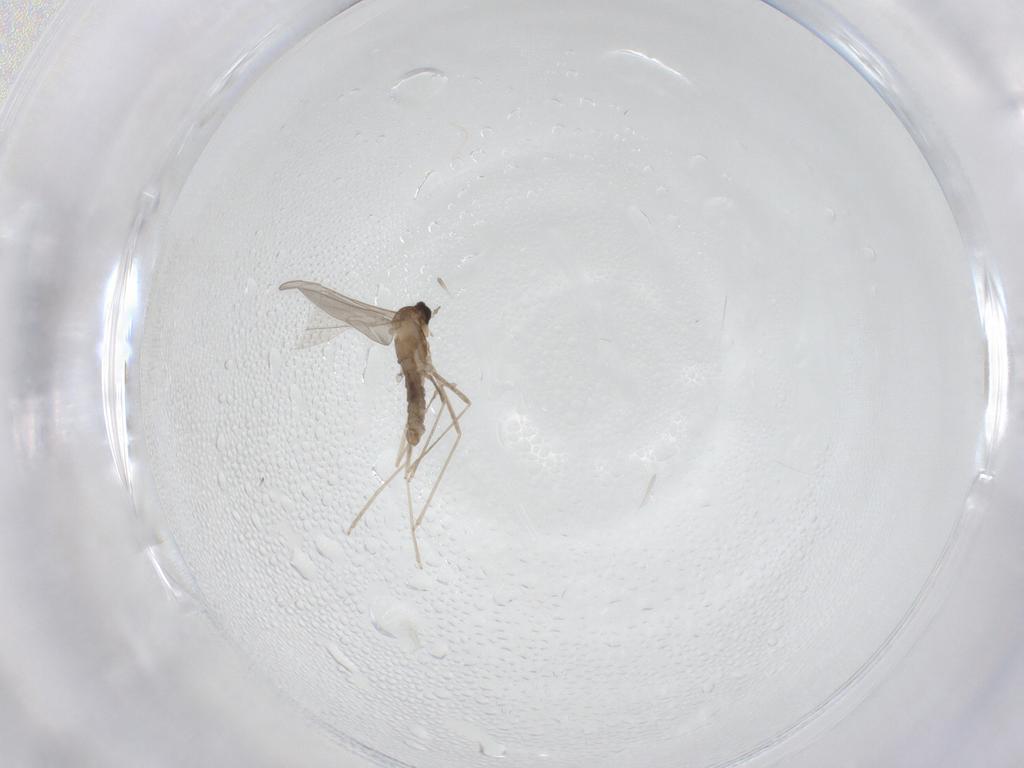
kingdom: Animalia
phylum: Arthropoda
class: Insecta
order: Diptera
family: Cecidomyiidae
